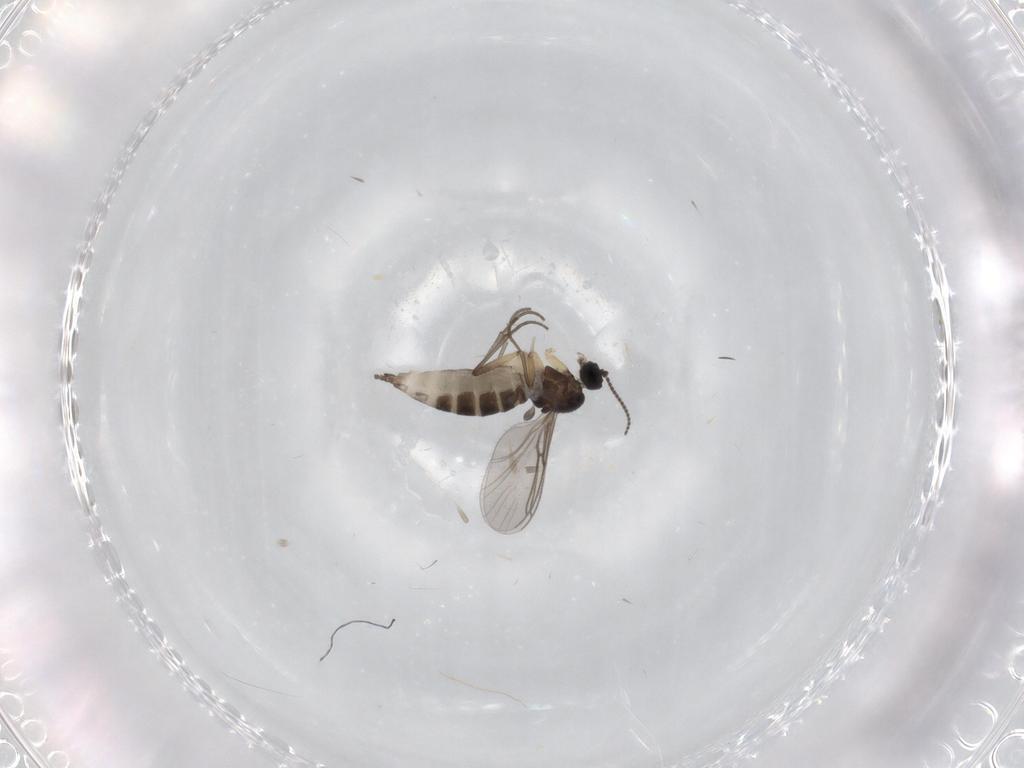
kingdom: Animalia
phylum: Arthropoda
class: Insecta
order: Diptera
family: Sciaridae
